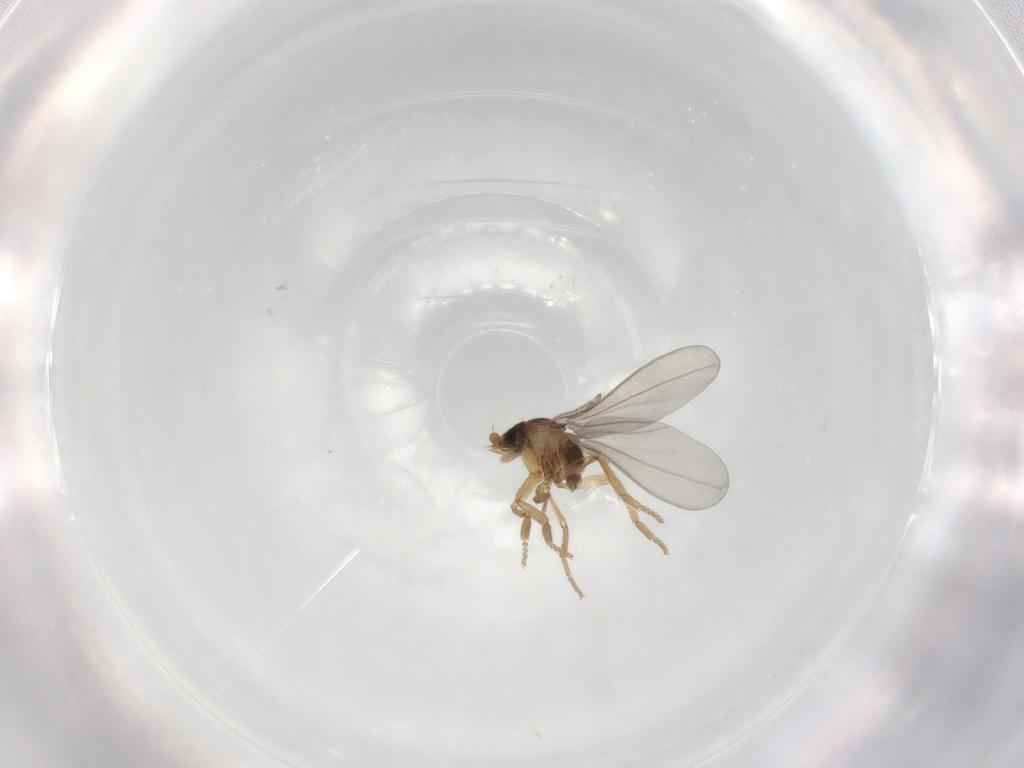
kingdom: Animalia
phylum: Arthropoda
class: Insecta
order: Diptera
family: Phoridae
